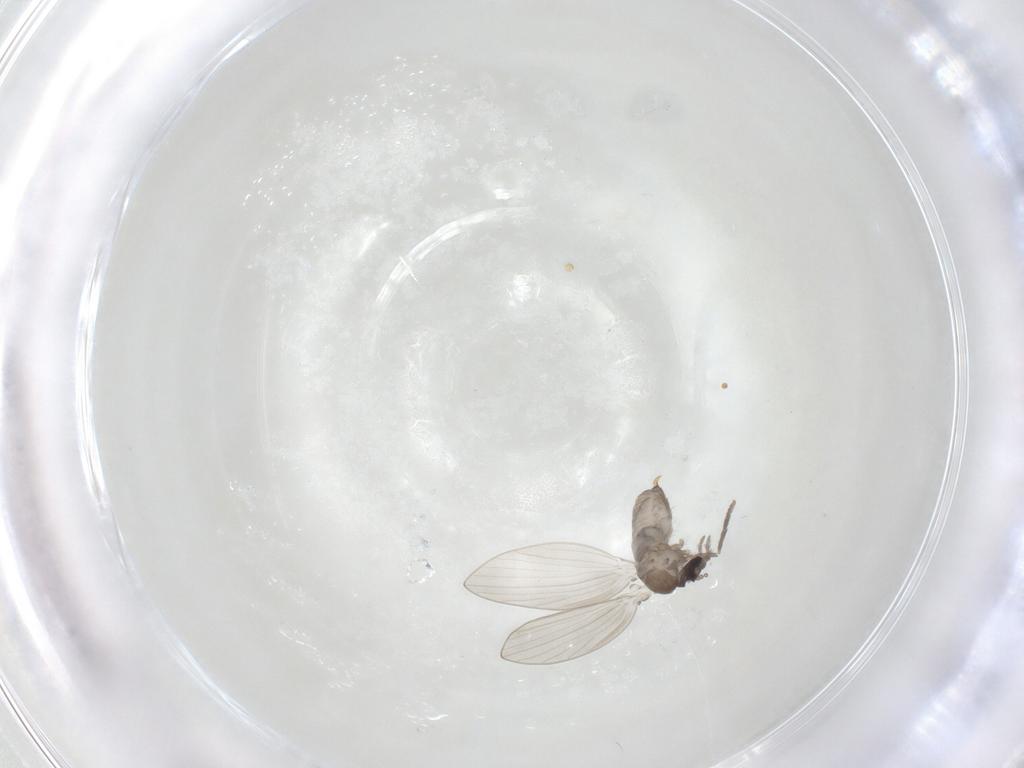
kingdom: Animalia
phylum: Arthropoda
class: Insecta
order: Diptera
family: Psychodidae
